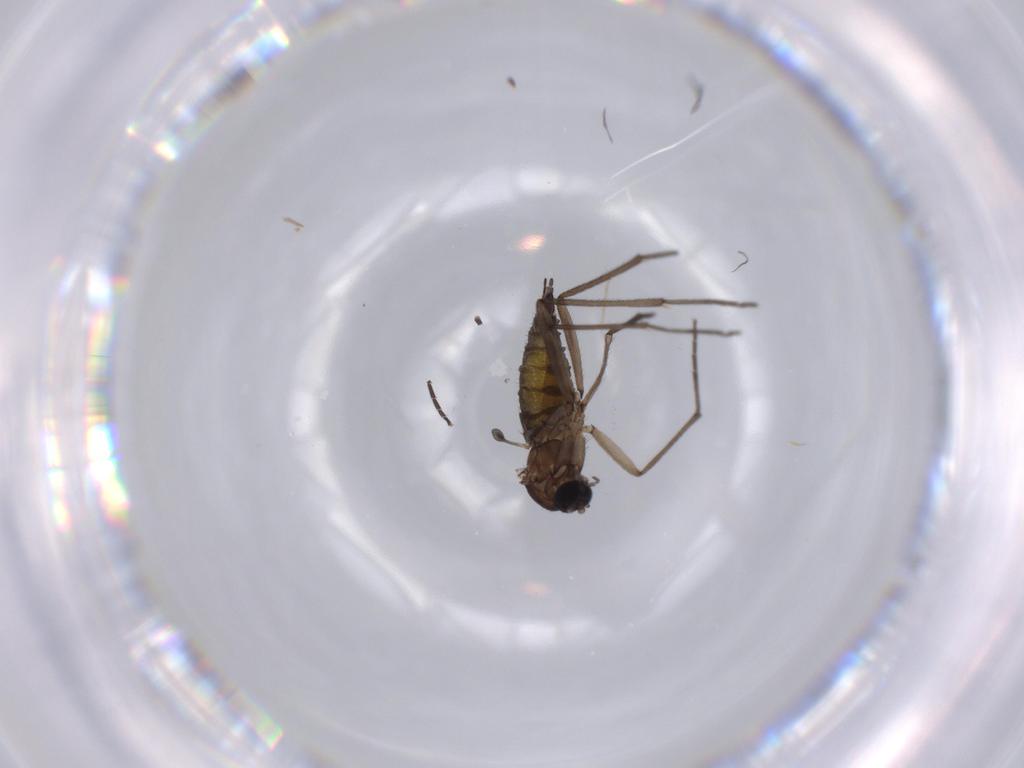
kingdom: Animalia
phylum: Arthropoda
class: Insecta
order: Diptera
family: Sciaridae
